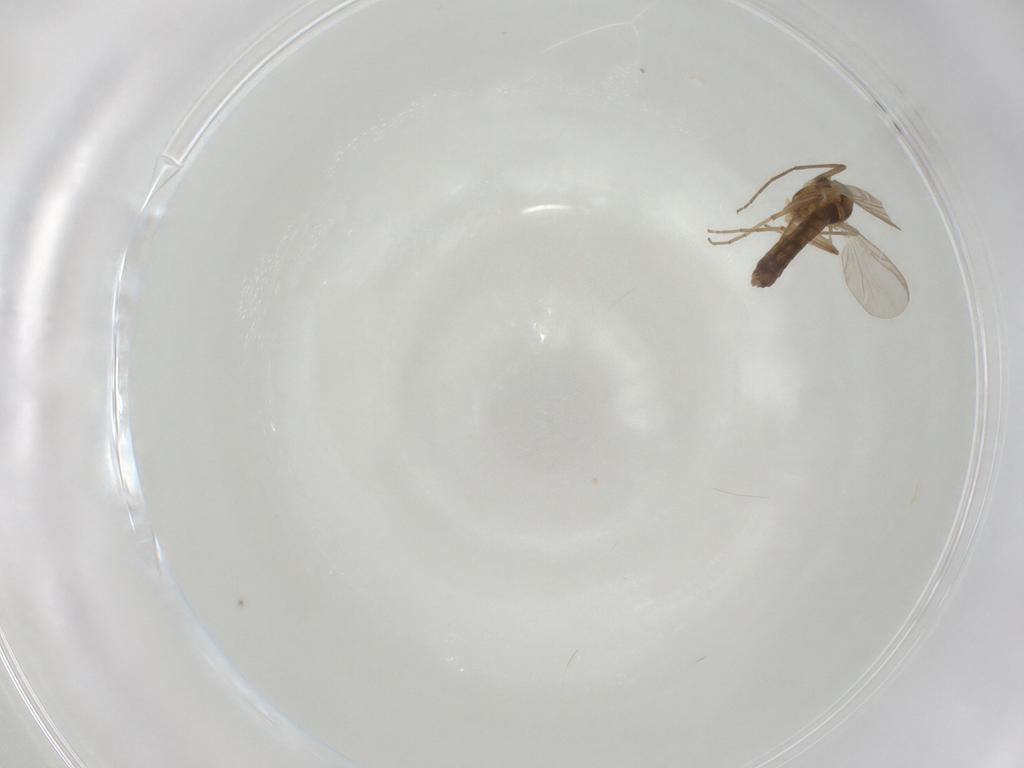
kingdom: Animalia
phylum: Arthropoda
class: Insecta
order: Diptera
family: Chironomidae
